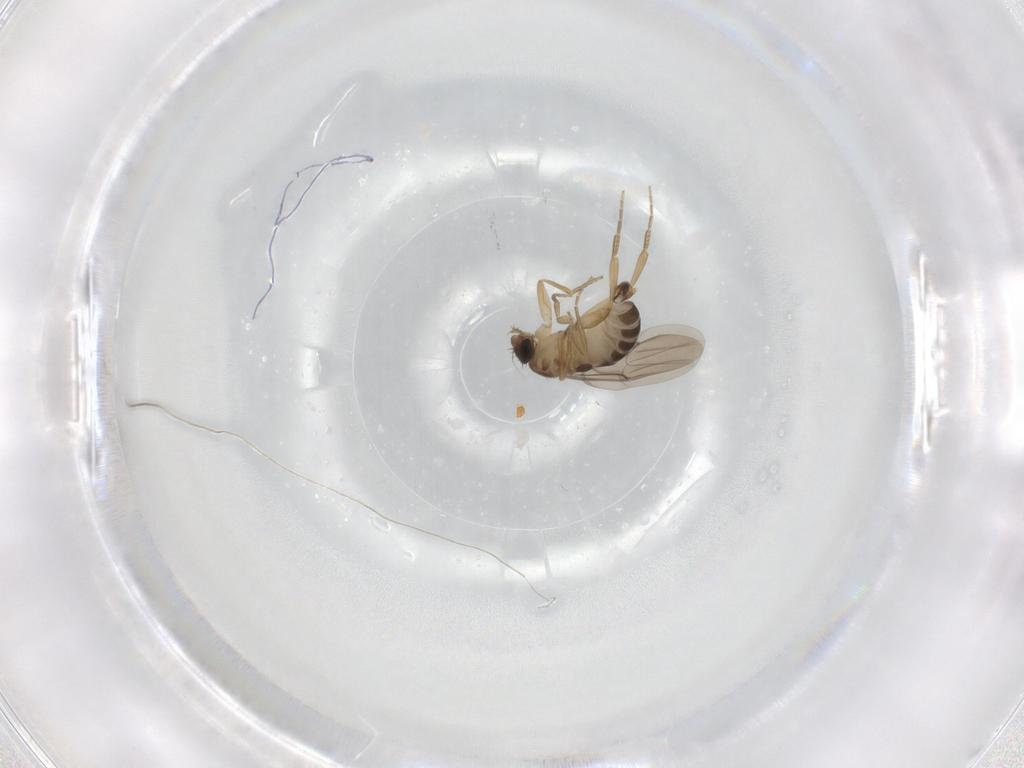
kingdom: Animalia
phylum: Arthropoda
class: Insecta
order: Diptera
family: Phoridae
